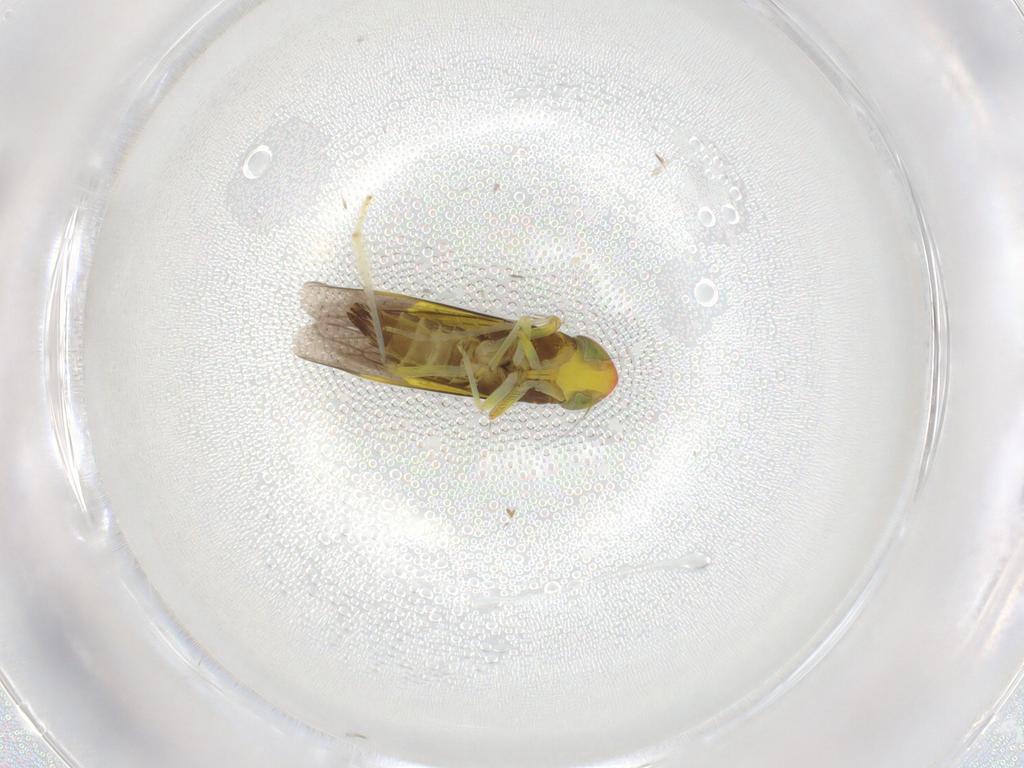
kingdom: Animalia
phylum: Arthropoda
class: Insecta
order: Hemiptera
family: Cicadellidae
